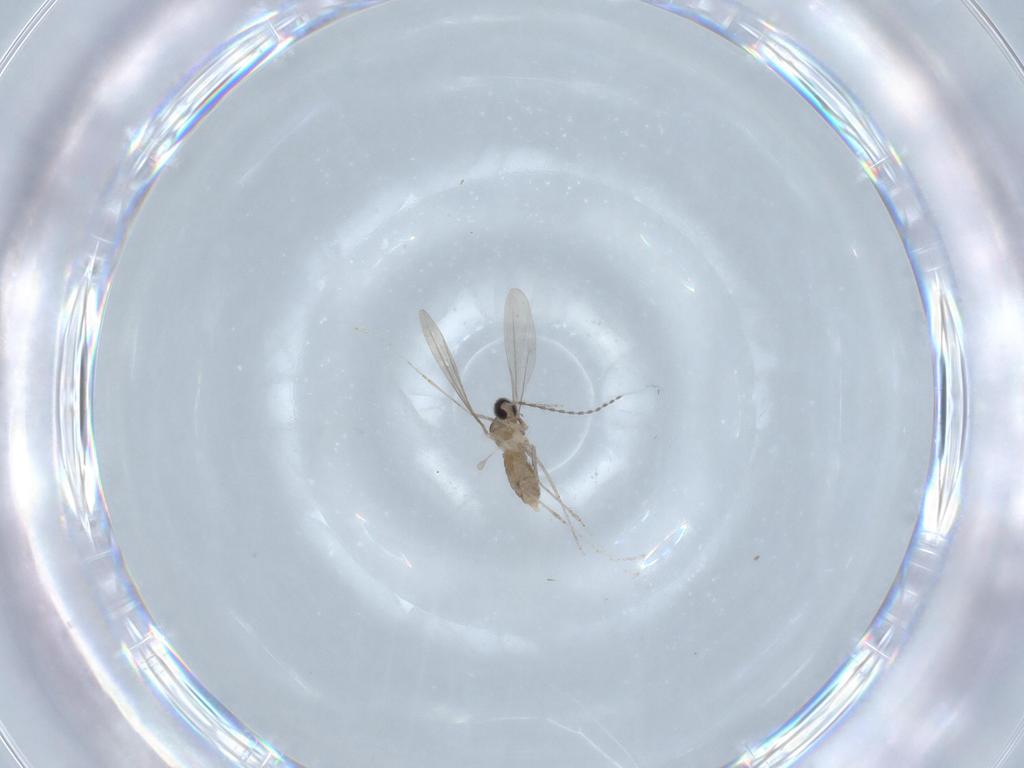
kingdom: Animalia
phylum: Arthropoda
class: Insecta
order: Diptera
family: Cecidomyiidae
